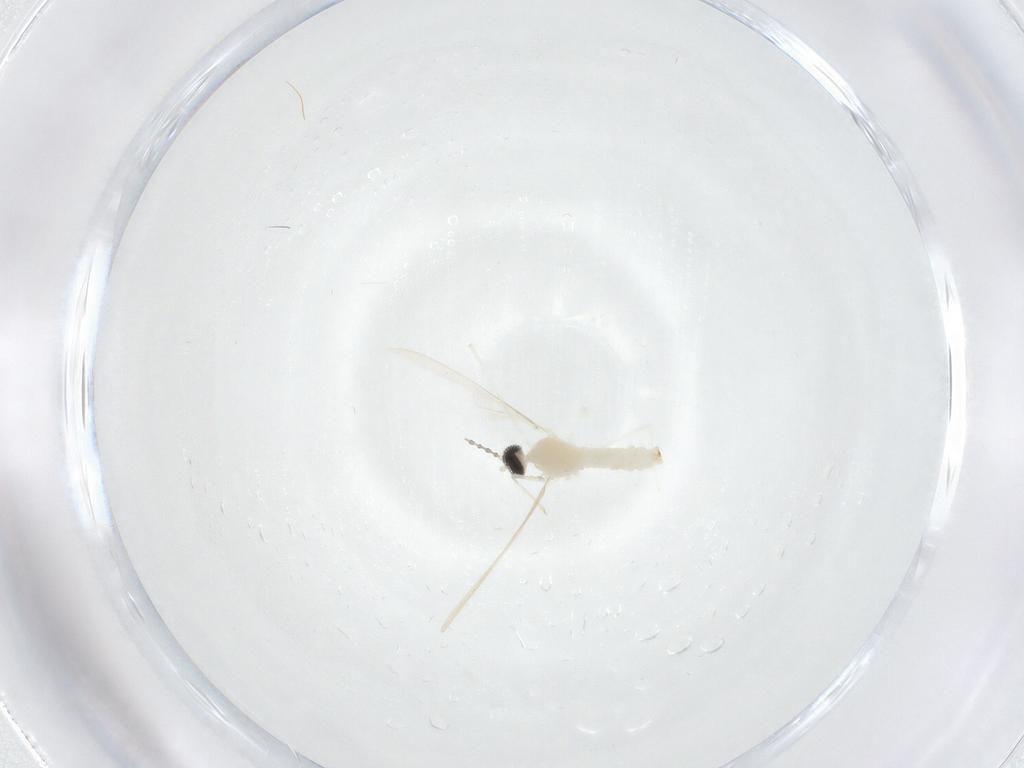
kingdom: Animalia
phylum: Arthropoda
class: Insecta
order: Diptera
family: Cecidomyiidae
